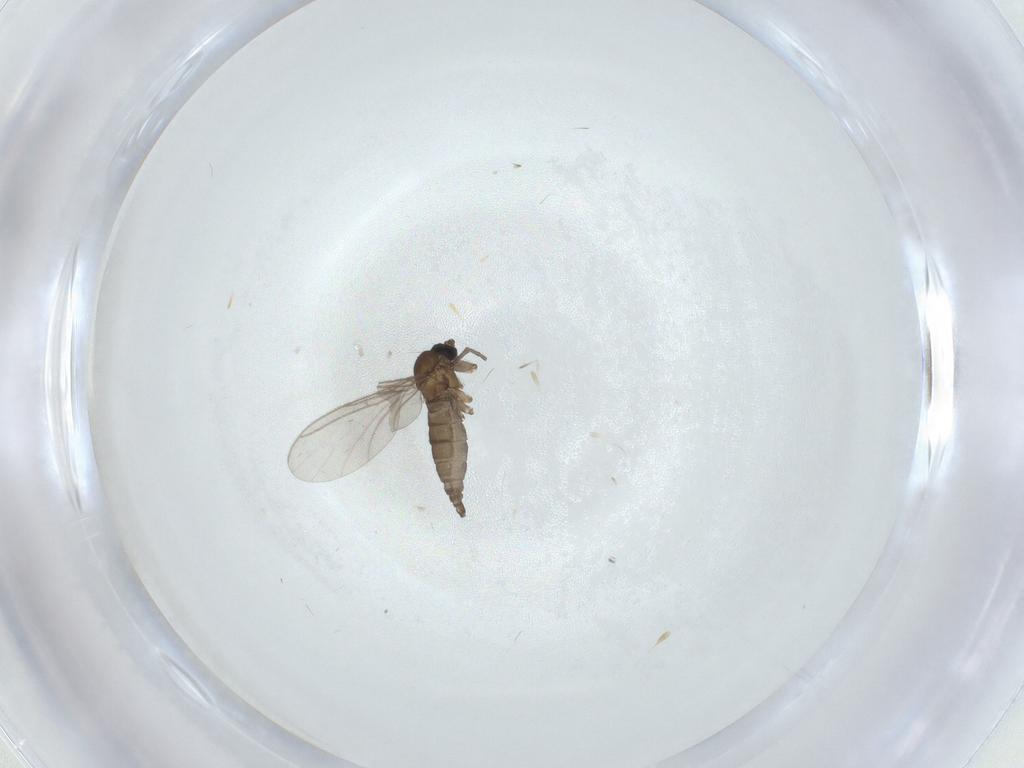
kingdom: Animalia
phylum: Arthropoda
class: Insecta
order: Diptera
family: Sciaridae
